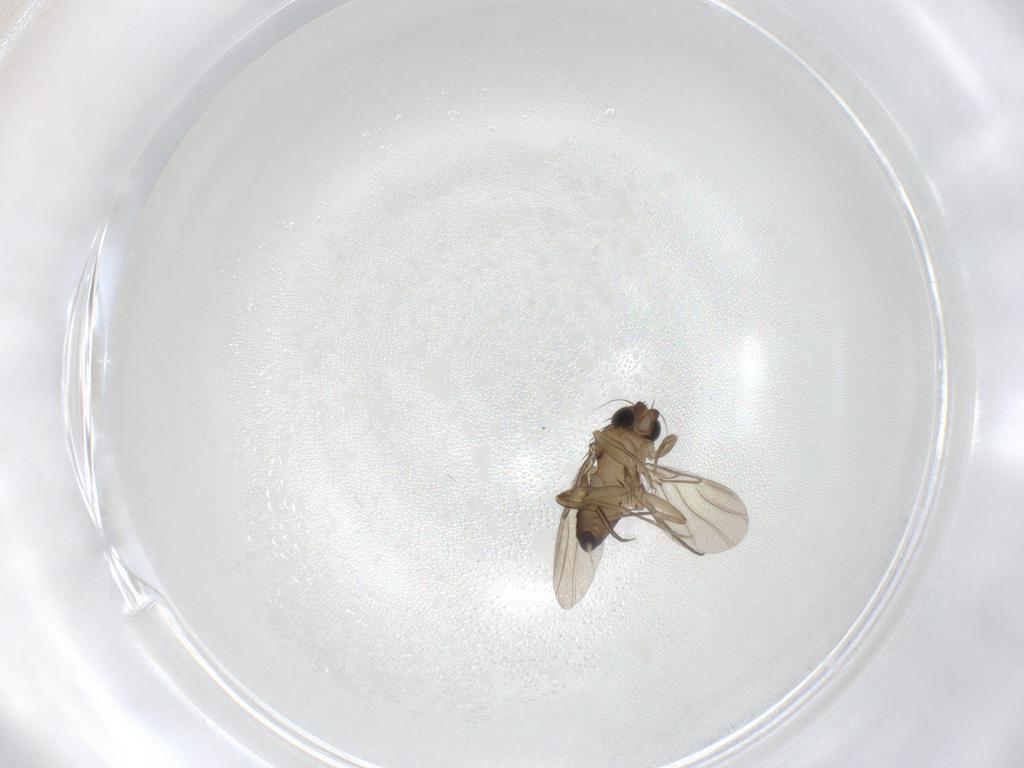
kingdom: Animalia
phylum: Arthropoda
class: Insecta
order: Diptera
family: Phoridae
